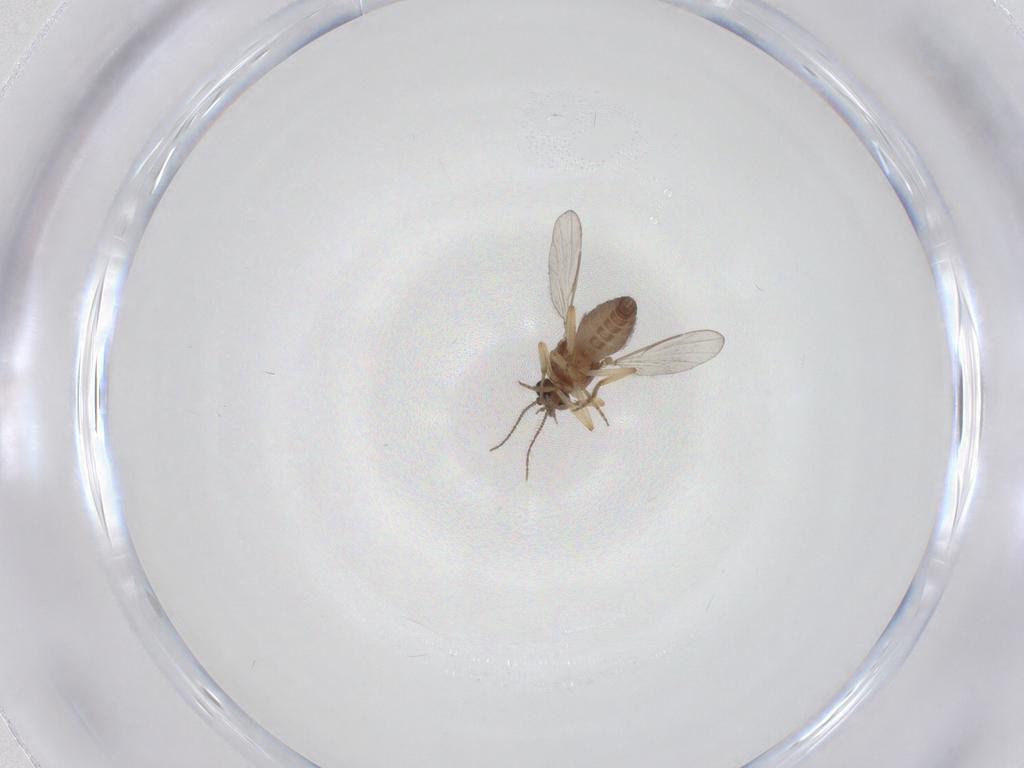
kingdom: Animalia
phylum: Arthropoda
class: Insecta
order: Diptera
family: Ceratopogonidae
